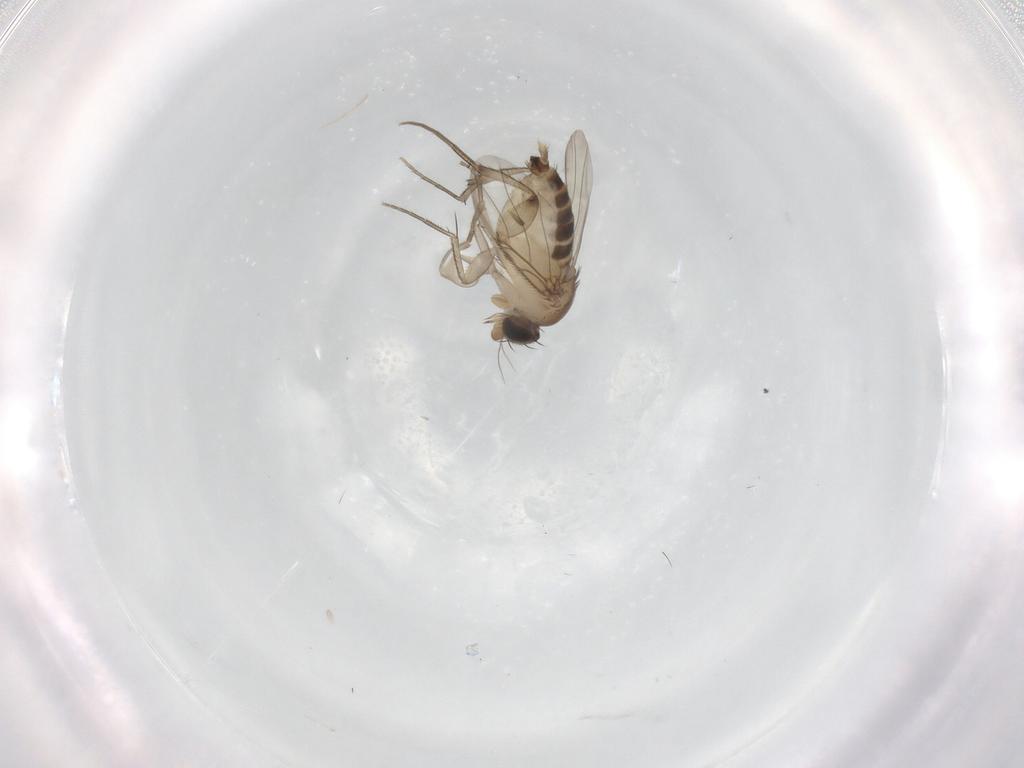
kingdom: Animalia
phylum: Arthropoda
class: Insecta
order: Diptera
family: Phoridae
